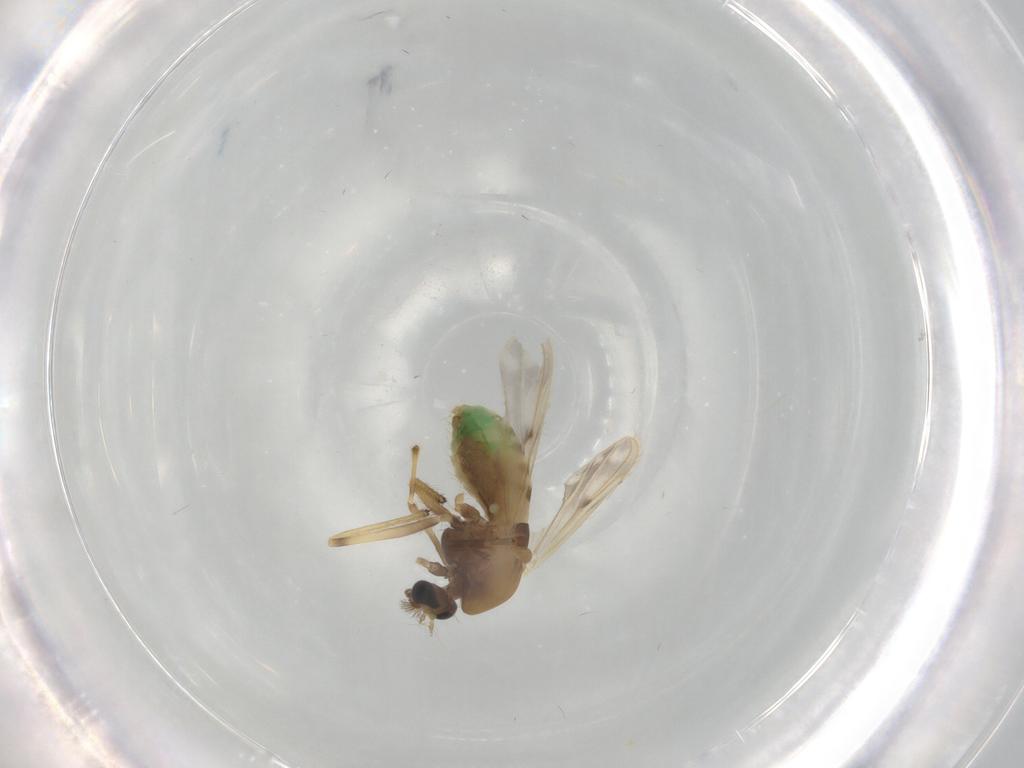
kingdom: Animalia
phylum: Arthropoda
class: Insecta
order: Diptera
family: Chironomidae
